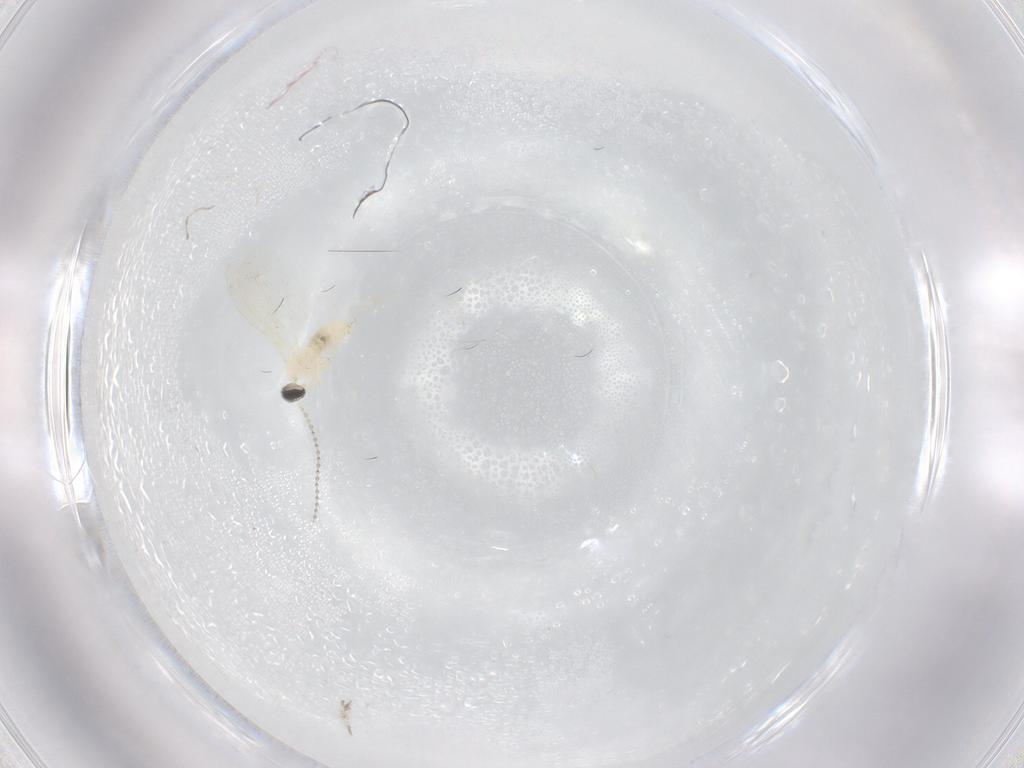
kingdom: Animalia
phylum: Arthropoda
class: Insecta
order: Diptera
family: Cecidomyiidae
